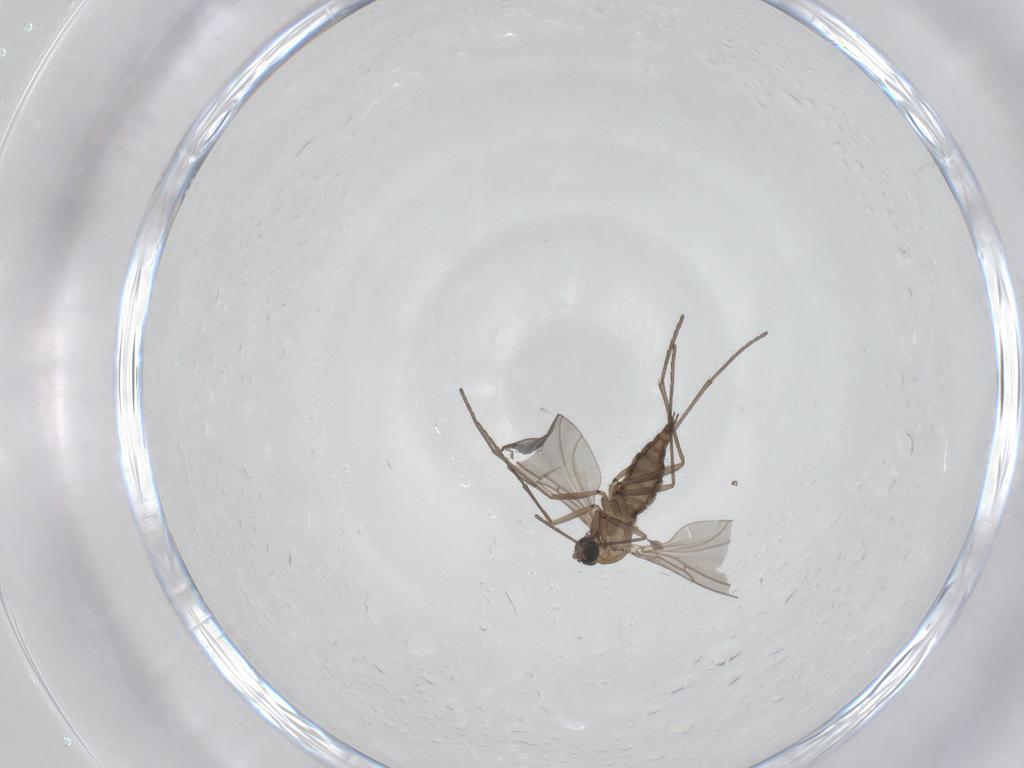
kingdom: Animalia
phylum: Arthropoda
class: Insecta
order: Diptera
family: Sciaridae
